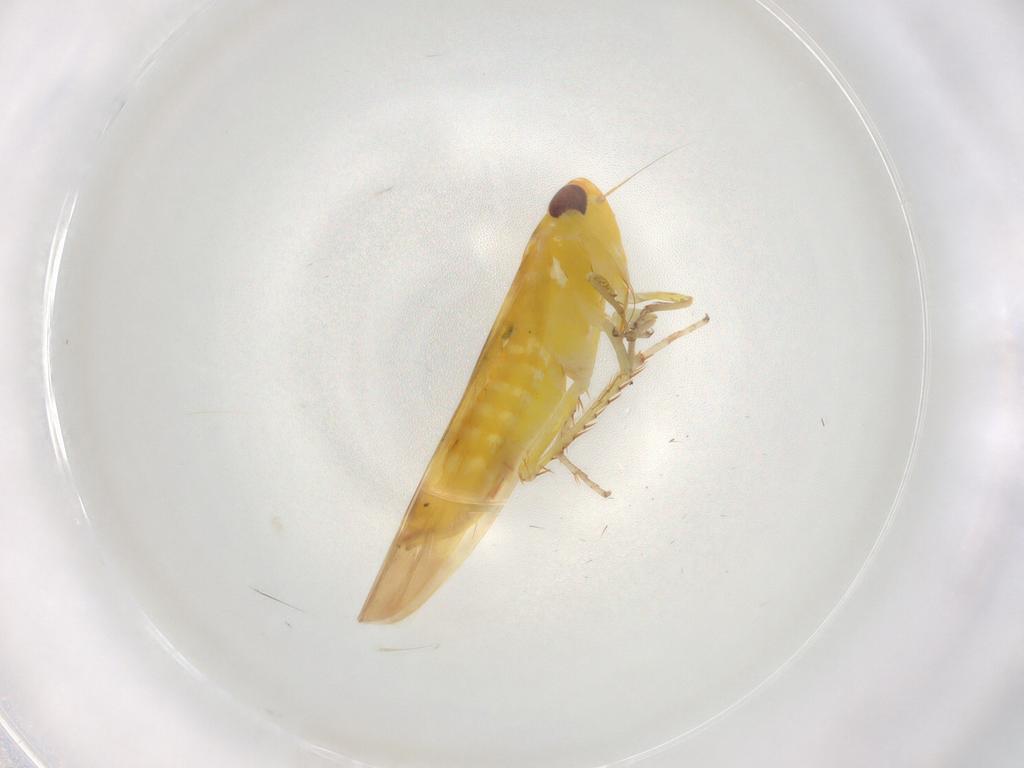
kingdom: Animalia
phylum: Arthropoda
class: Insecta
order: Hemiptera
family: Cicadellidae
